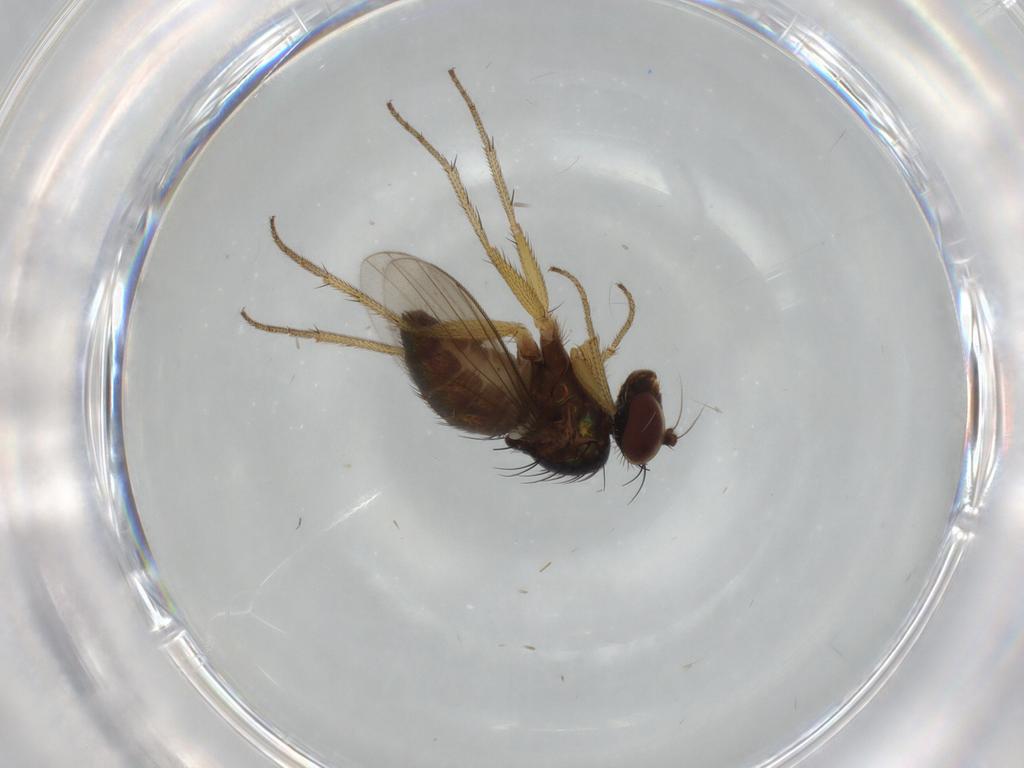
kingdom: Animalia
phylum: Arthropoda
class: Insecta
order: Diptera
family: Dolichopodidae
